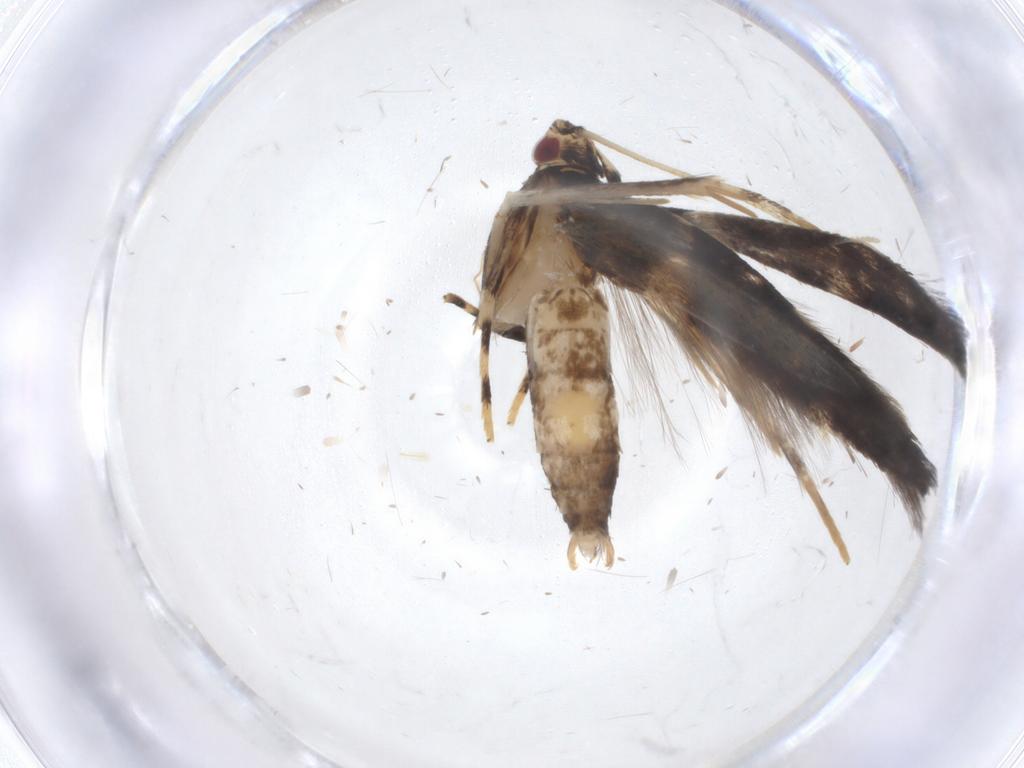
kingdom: Animalia
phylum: Arthropoda
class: Insecta
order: Lepidoptera
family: Cosmopterigidae
